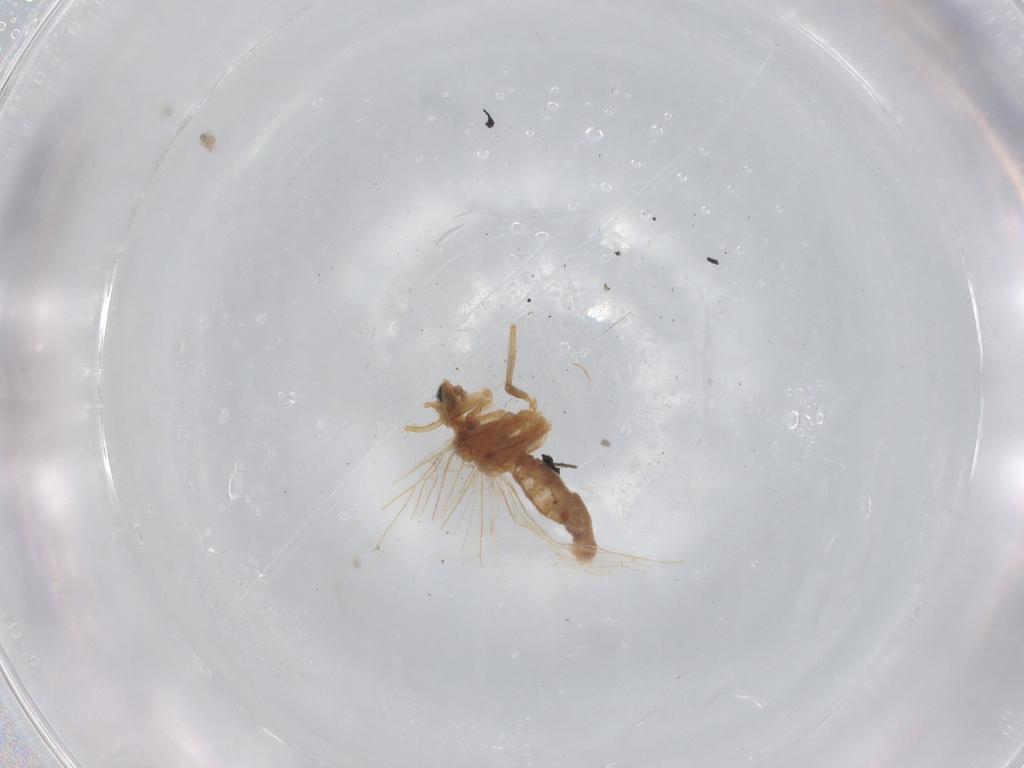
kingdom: Animalia
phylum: Arthropoda
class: Insecta
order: Neuroptera
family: Coniopterygidae
